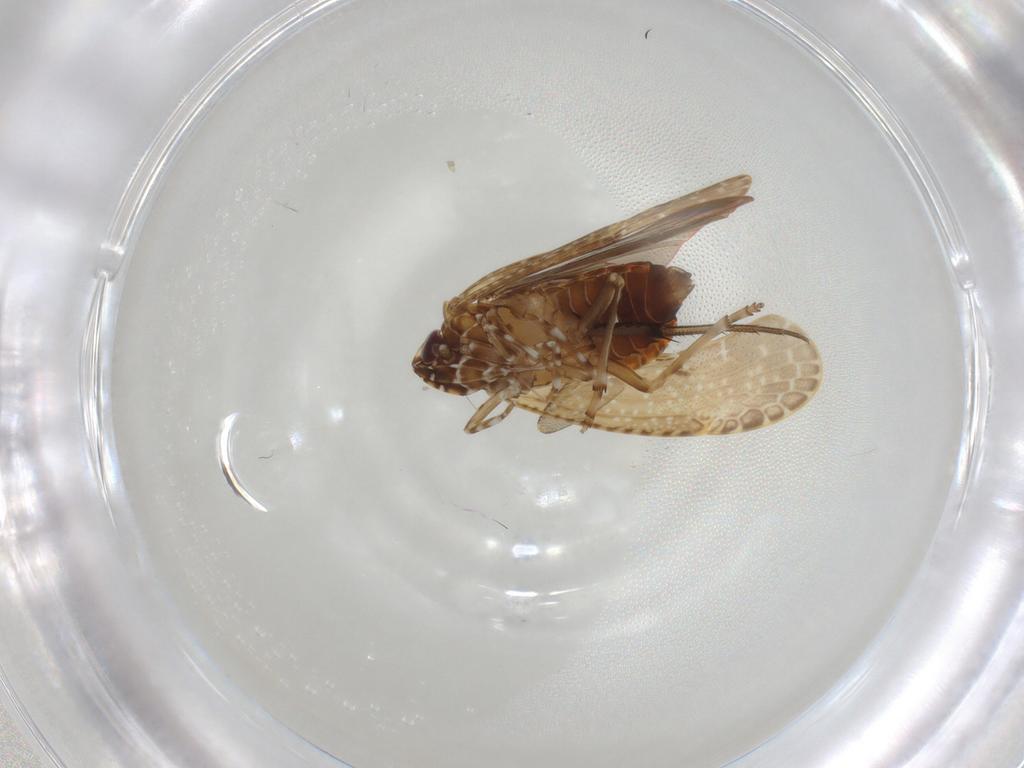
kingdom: Animalia
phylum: Arthropoda
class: Insecta
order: Hemiptera
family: Achilidae
